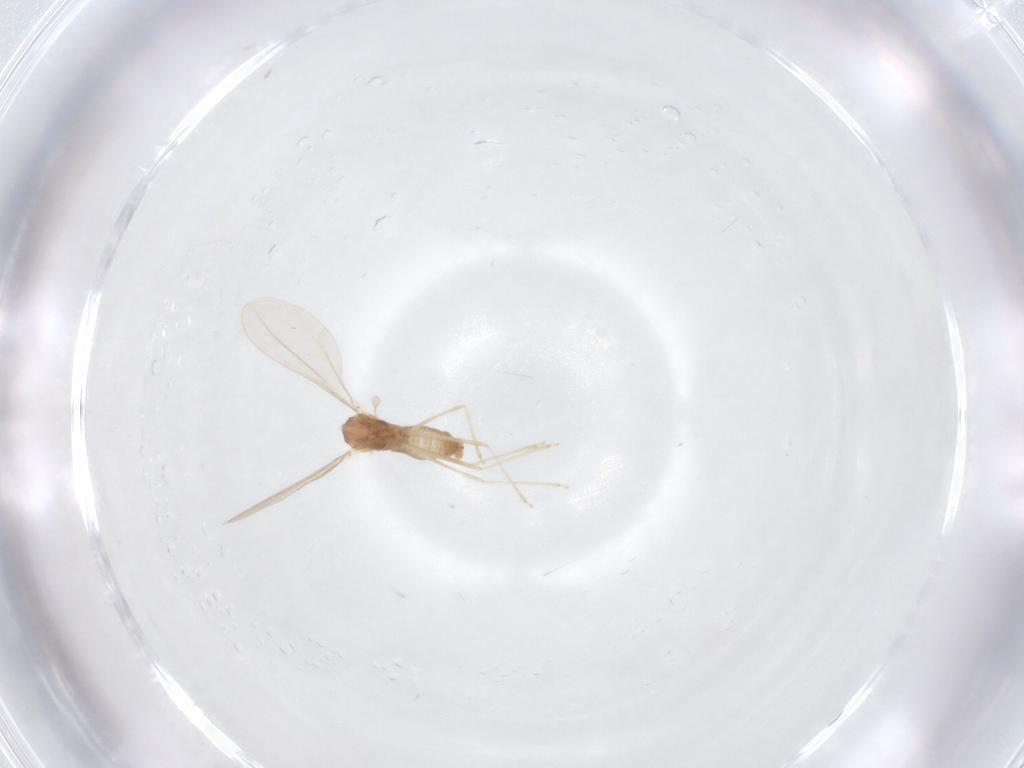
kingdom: Animalia
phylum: Arthropoda
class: Insecta
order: Diptera
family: Cecidomyiidae
